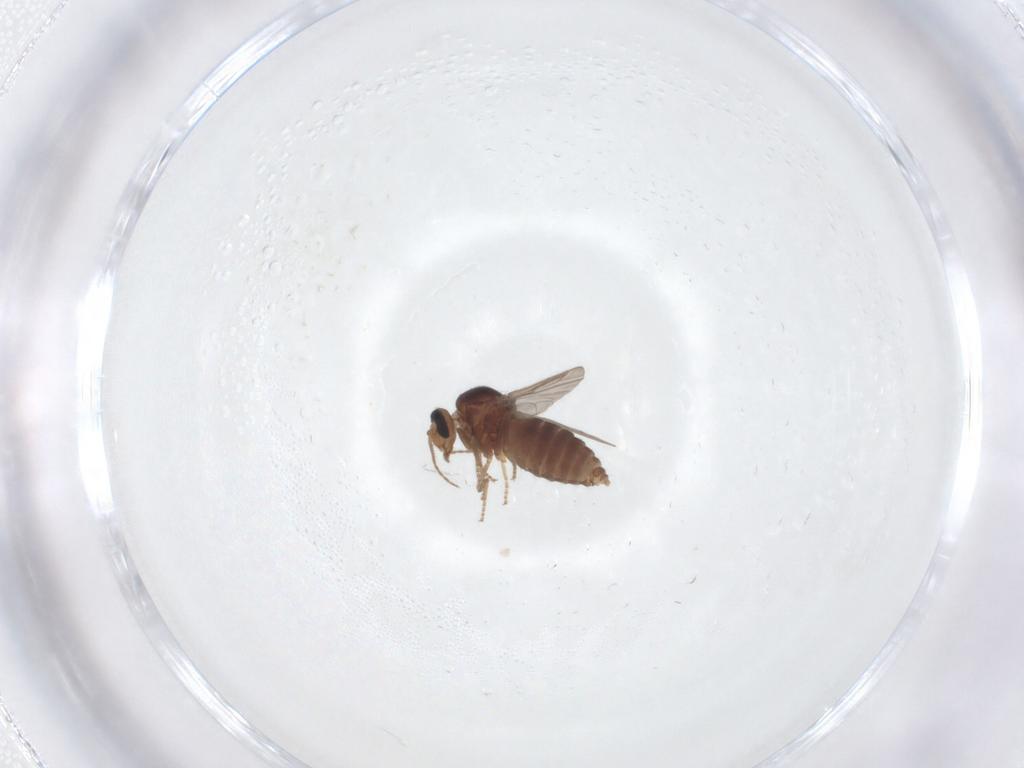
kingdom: Animalia
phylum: Arthropoda
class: Insecta
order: Diptera
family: Ceratopogonidae
